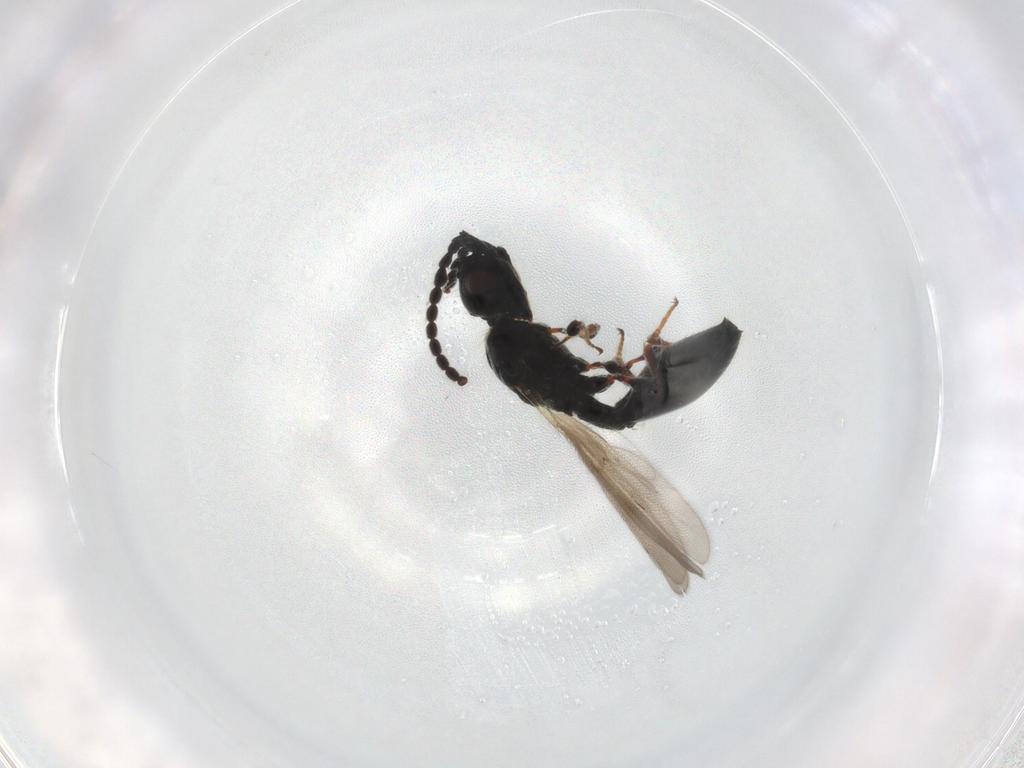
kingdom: Animalia
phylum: Arthropoda
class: Insecta
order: Hymenoptera
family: Diapriidae
